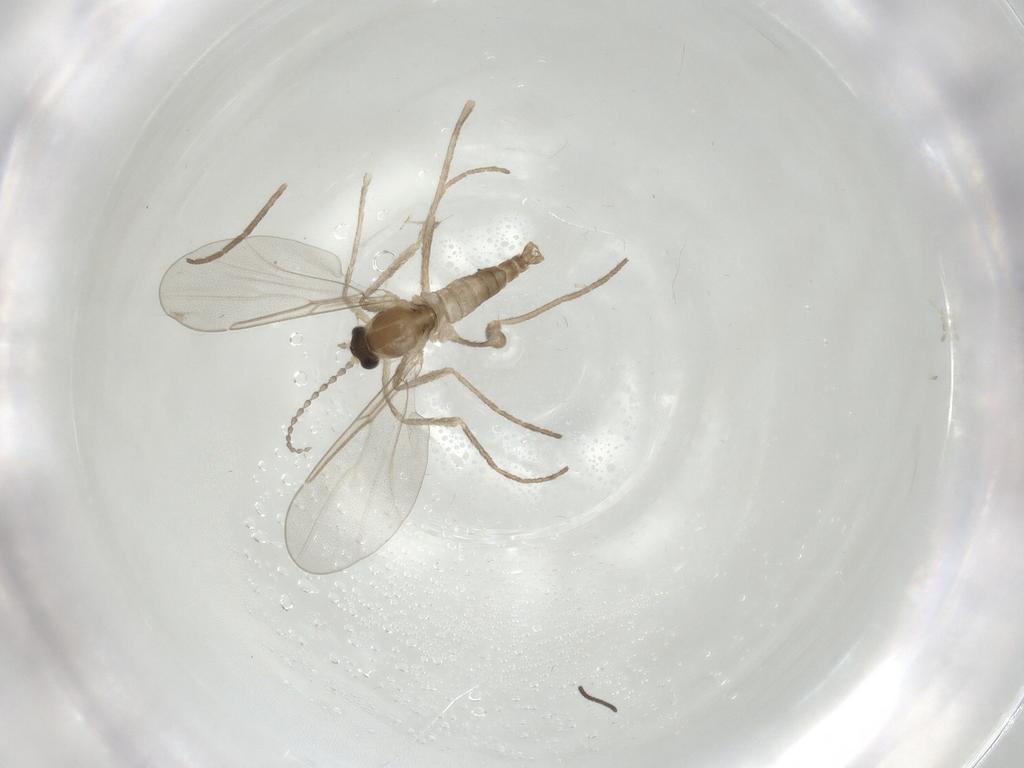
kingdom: Animalia
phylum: Arthropoda
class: Insecta
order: Diptera
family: Cecidomyiidae
